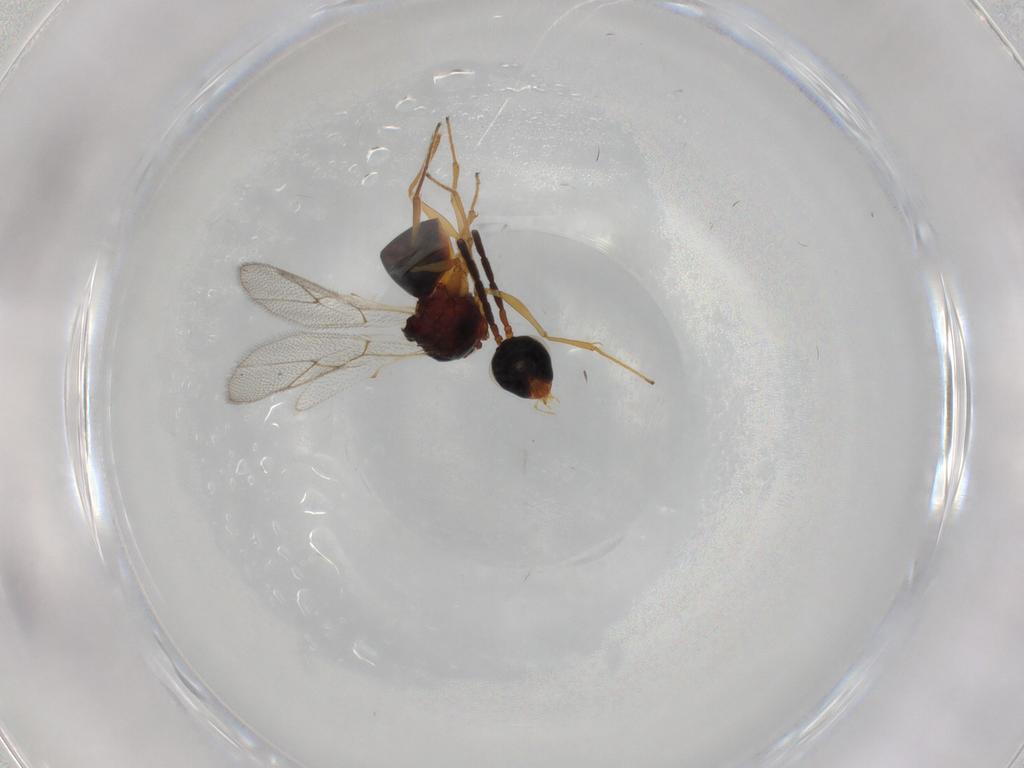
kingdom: Animalia
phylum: Arthropoda
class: Insecta
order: Hymenoptera
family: Figitidae
